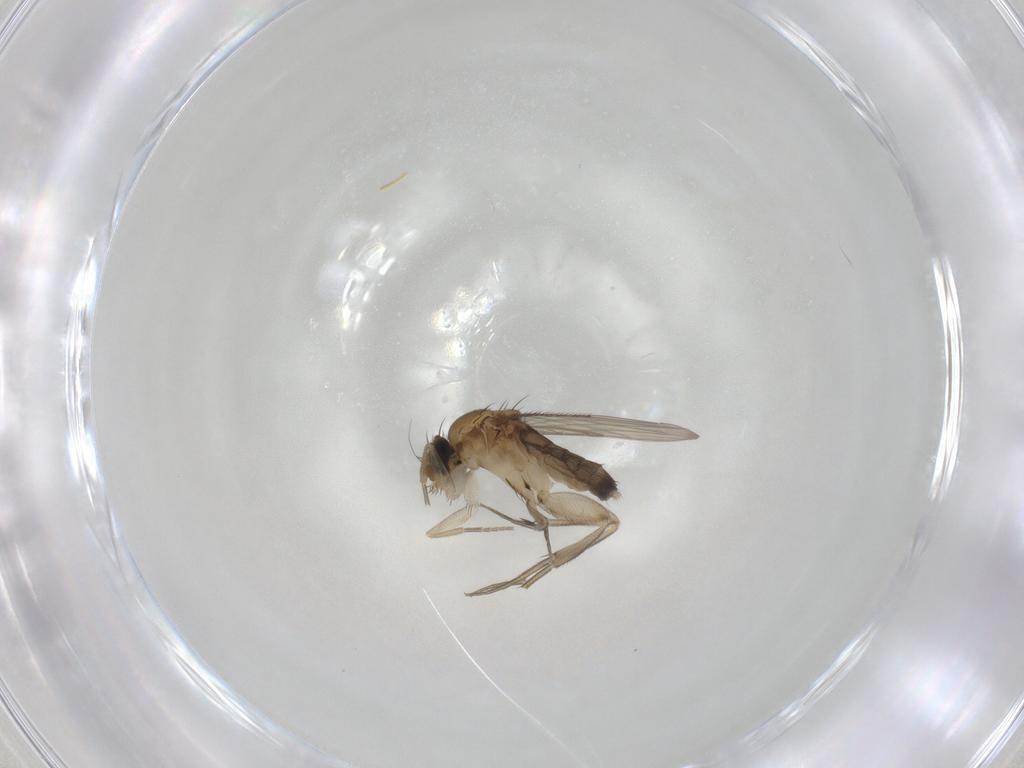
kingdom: Animalia
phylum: Arthropoda
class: Insecta
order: Diptera
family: Phoridae
